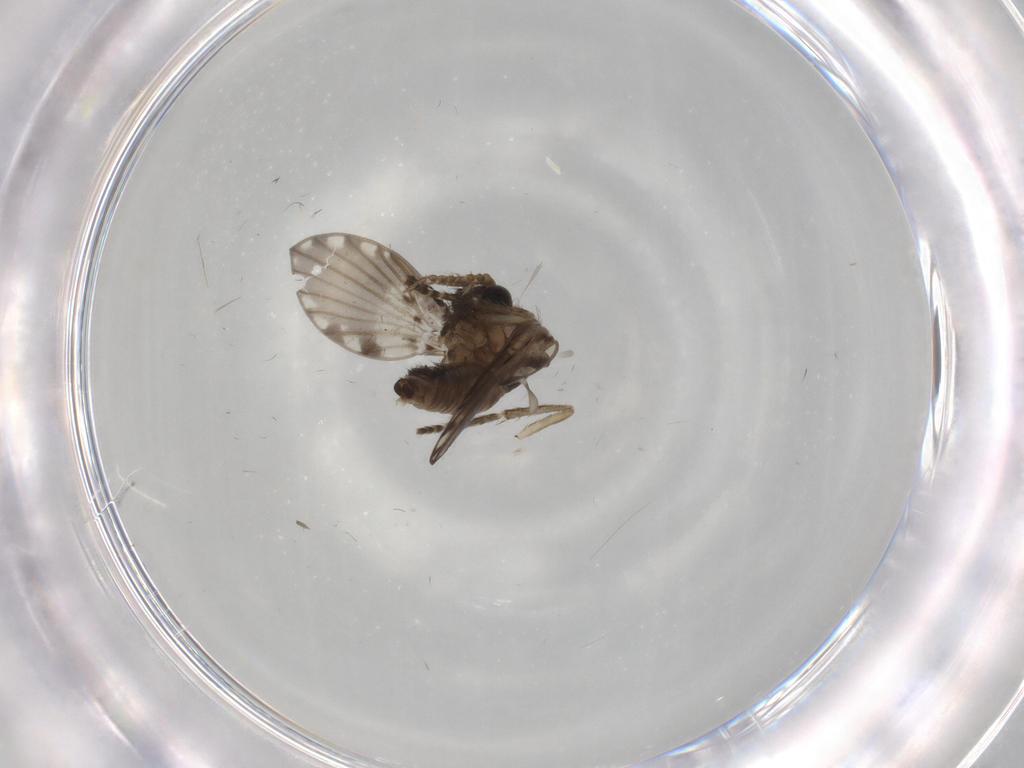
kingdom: Animalia
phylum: Arthropoda
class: Insecta
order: Diptera
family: Psychodidae
